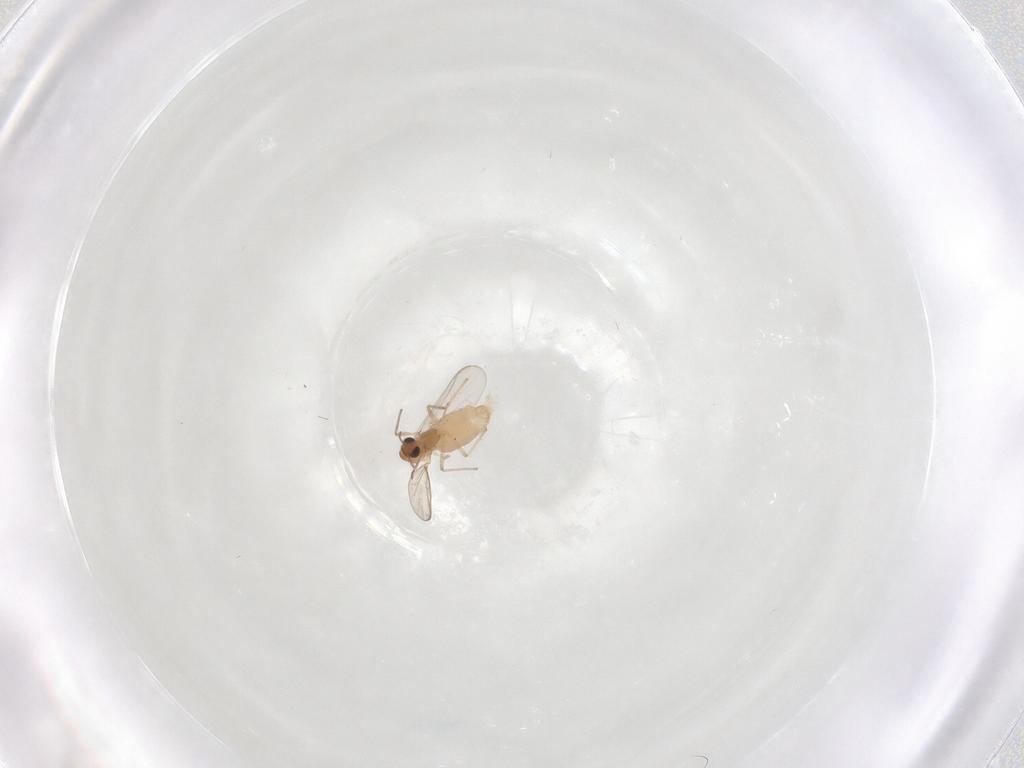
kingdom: Animalia
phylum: Arthropoda
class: Insecta
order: Diptera
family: Chironomidae
